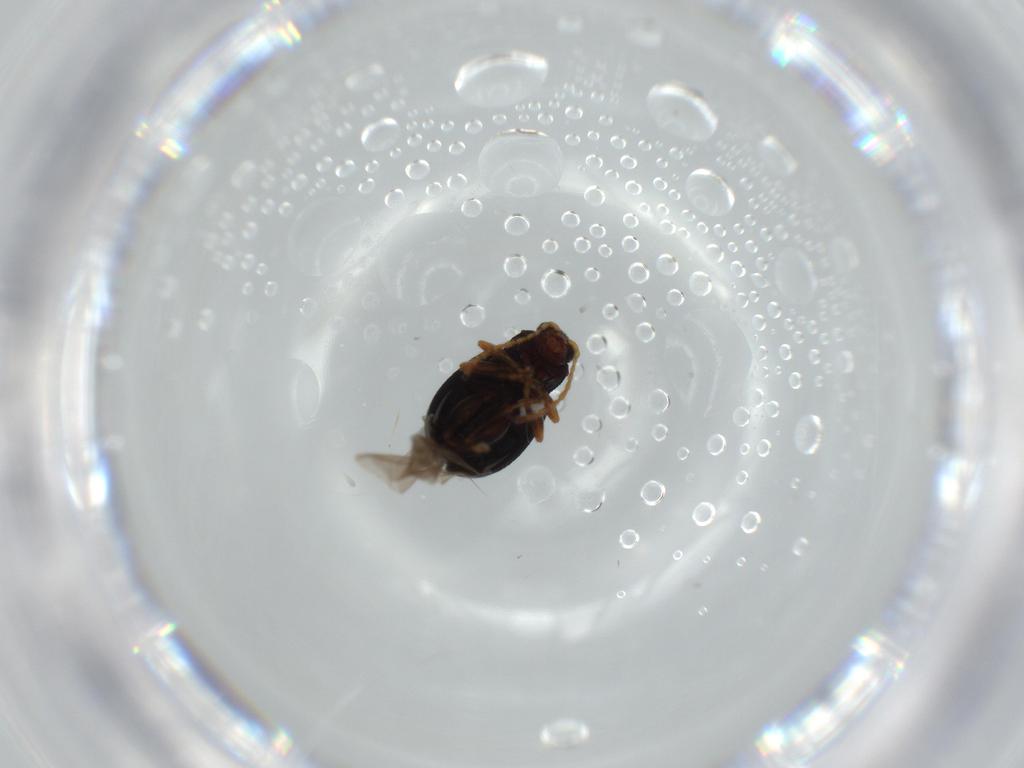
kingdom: Animalia
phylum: Arthropoda
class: Insecta
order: Coleoptera
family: Chrysomelidae
